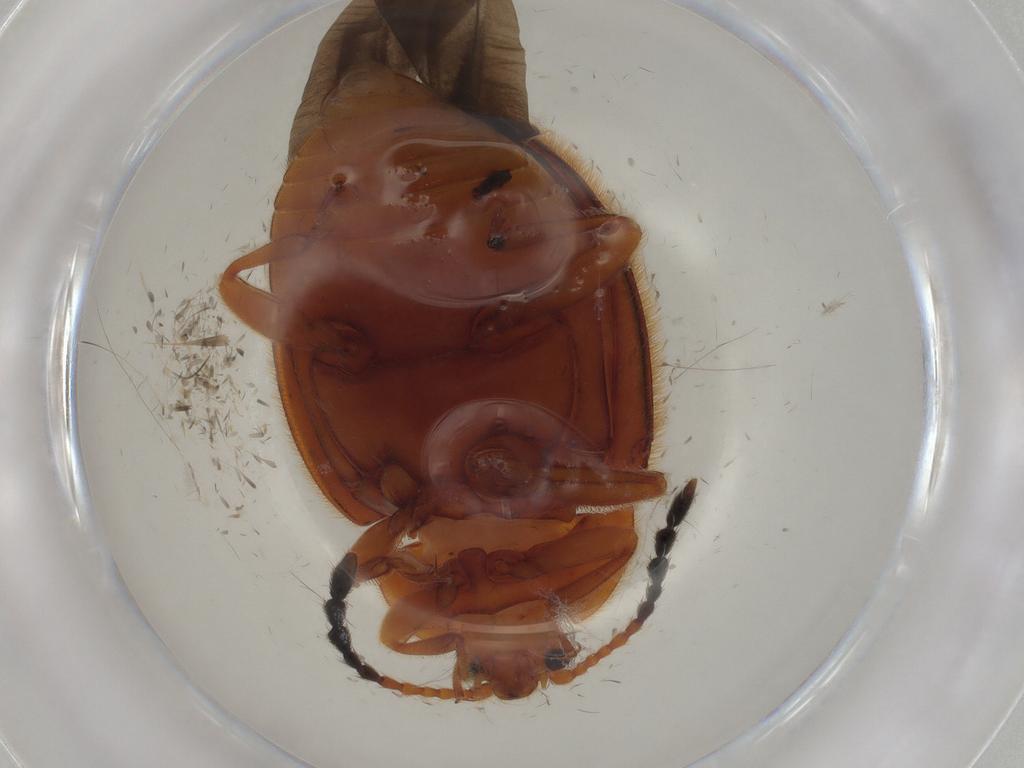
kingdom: Animalia
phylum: Arthropoda
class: Insecta
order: Coleoptera
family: Endomychidae
